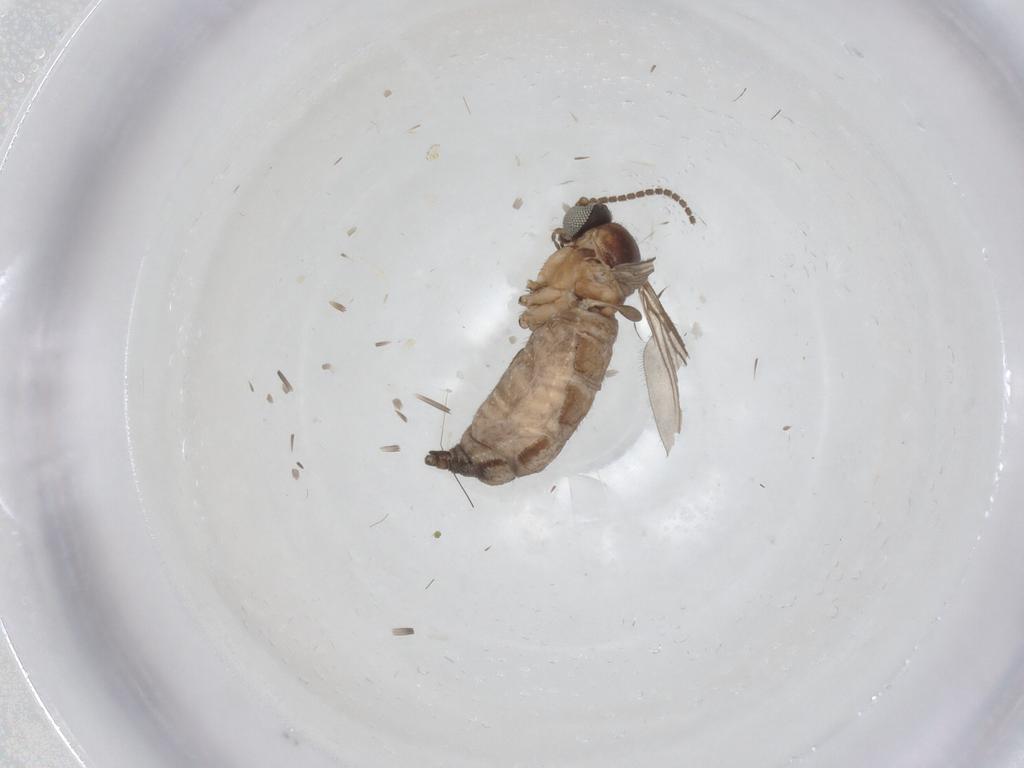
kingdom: Animalia
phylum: Arthropoda
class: Insecta
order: Diptera
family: Sciaridae
